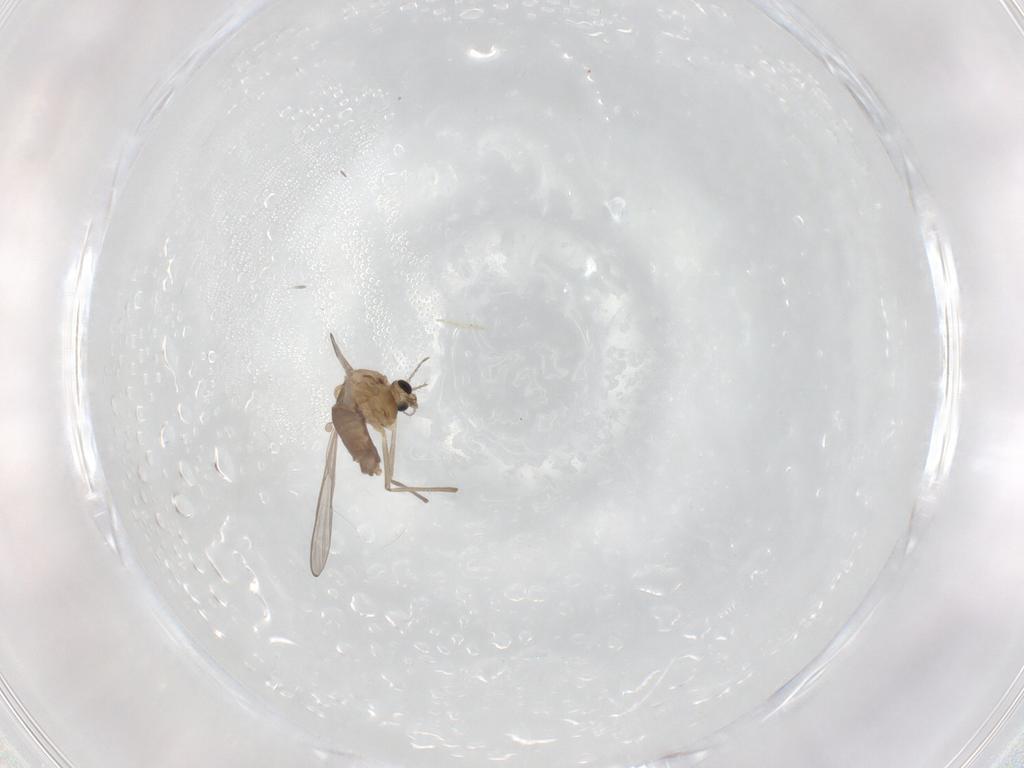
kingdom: Animalia
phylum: Arthropoda
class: Insecta
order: Diptera
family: Chironomidae
